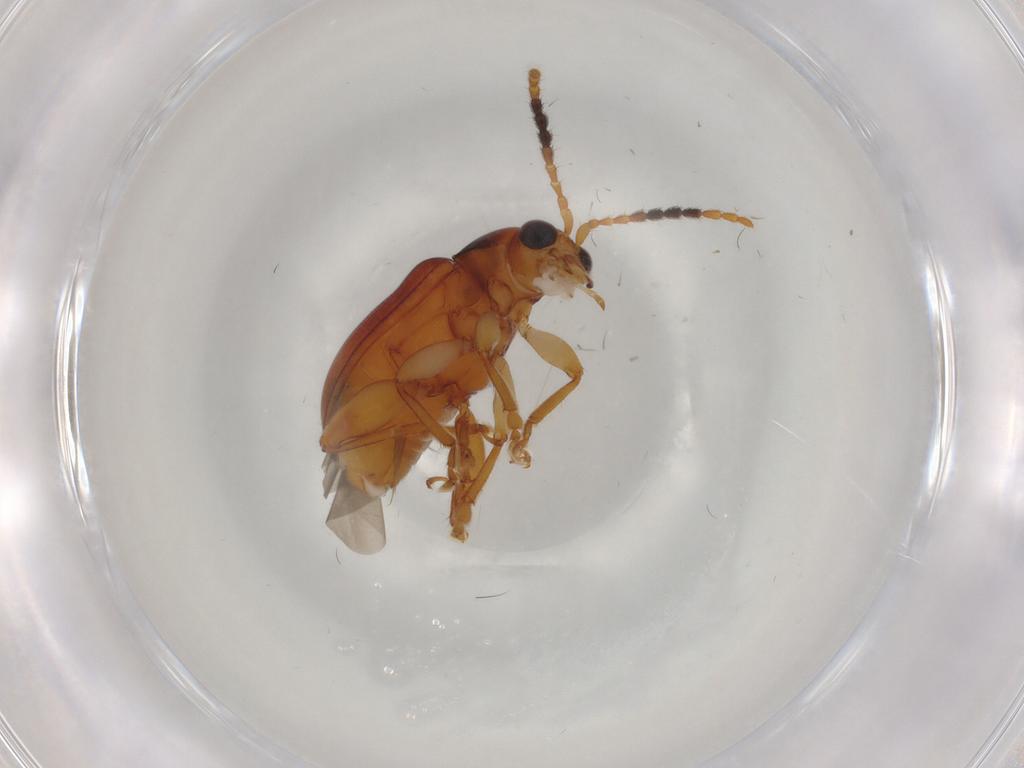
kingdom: Animalia
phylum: Arthropoda
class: Insecta
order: Coleoptera
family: Chrysomelidae
